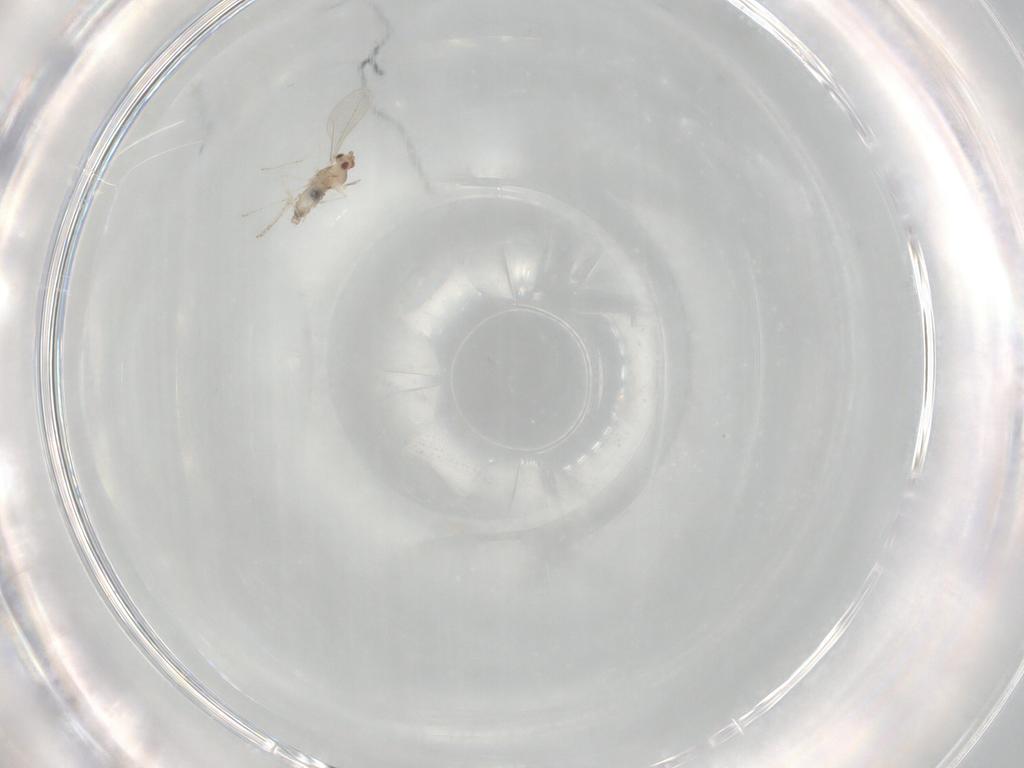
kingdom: Animalia
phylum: Arthropoda
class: Insecta
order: Diptera
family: Cecidomyiidae
